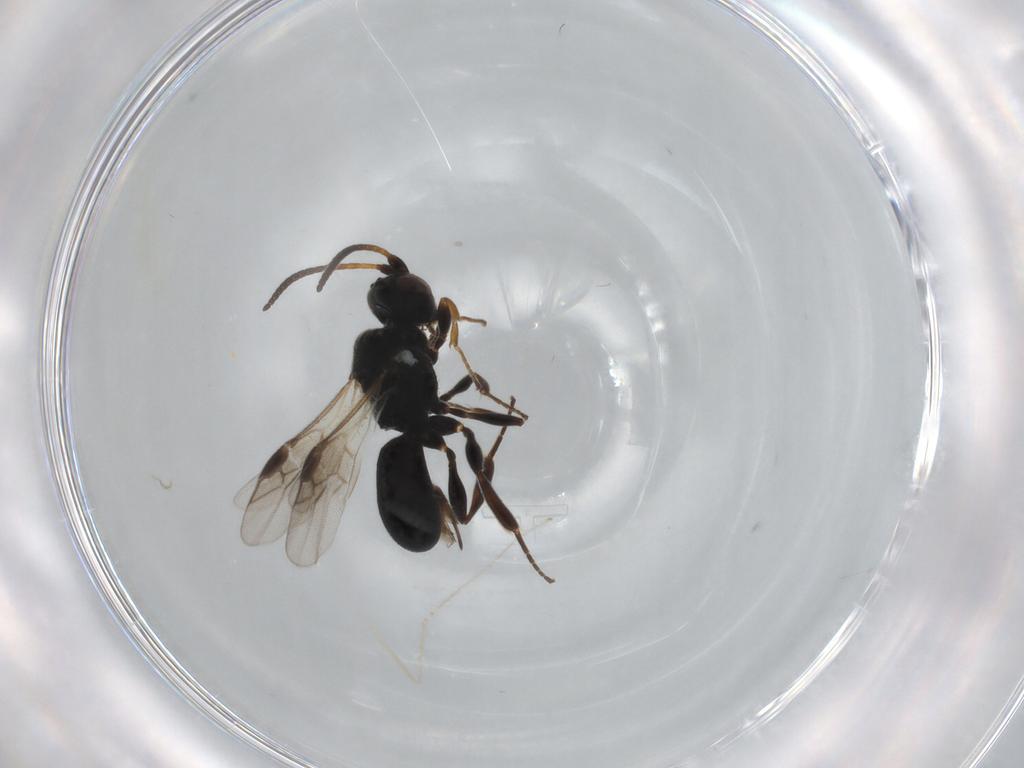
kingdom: Animalia
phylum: Arthropoda
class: Insecta
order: Hymenoptera
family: Braconidae
